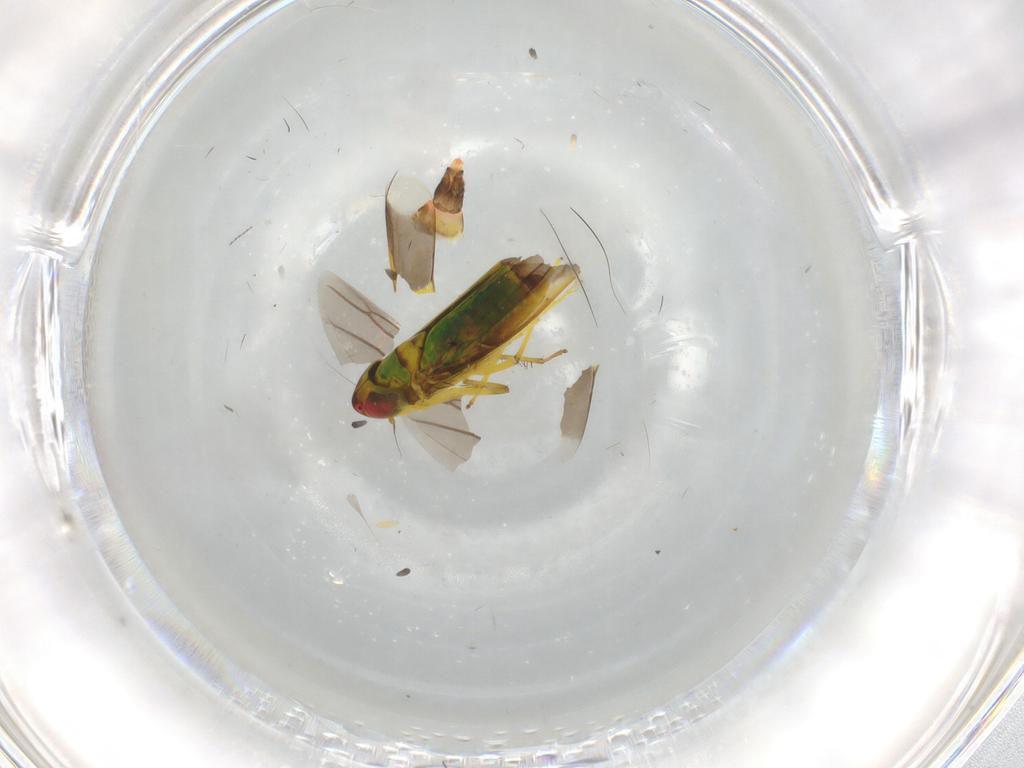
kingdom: Animalia
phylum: Arthropoda
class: Insecta
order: Hemiptera
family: Cicadellidae
